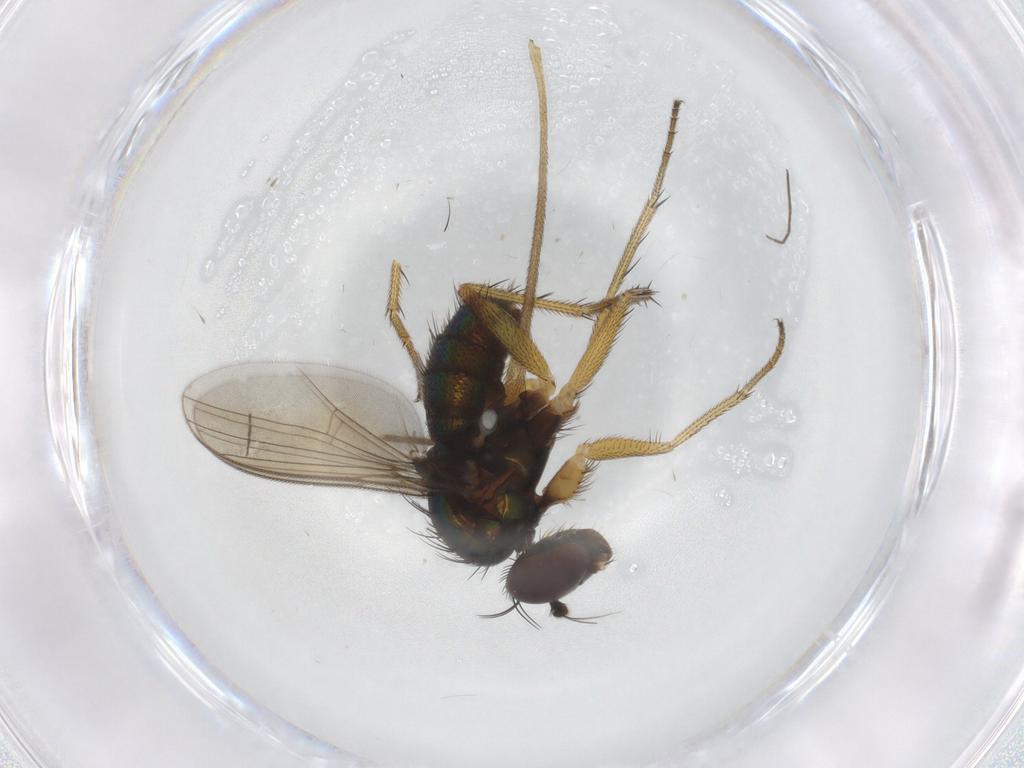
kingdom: Animalia
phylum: Arthropoda
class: Insecta
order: Diptera
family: Dolichopodidae
